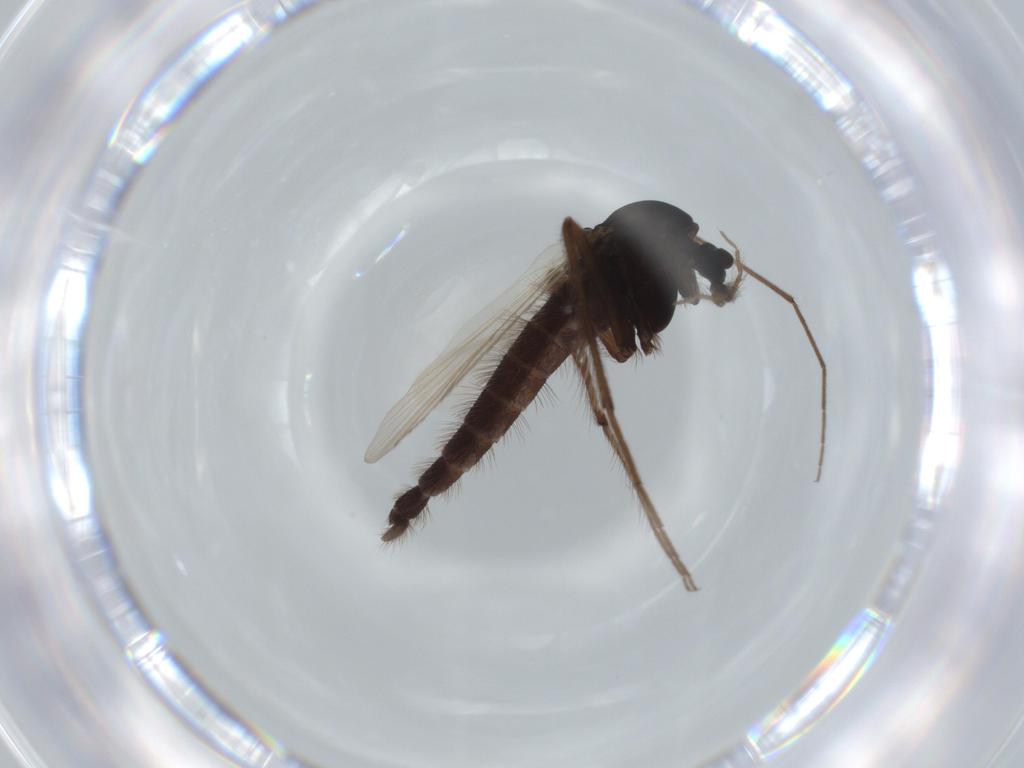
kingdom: Animalia
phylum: Arthropoda
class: Insecta
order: Diptera
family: Sphaeroceridae
